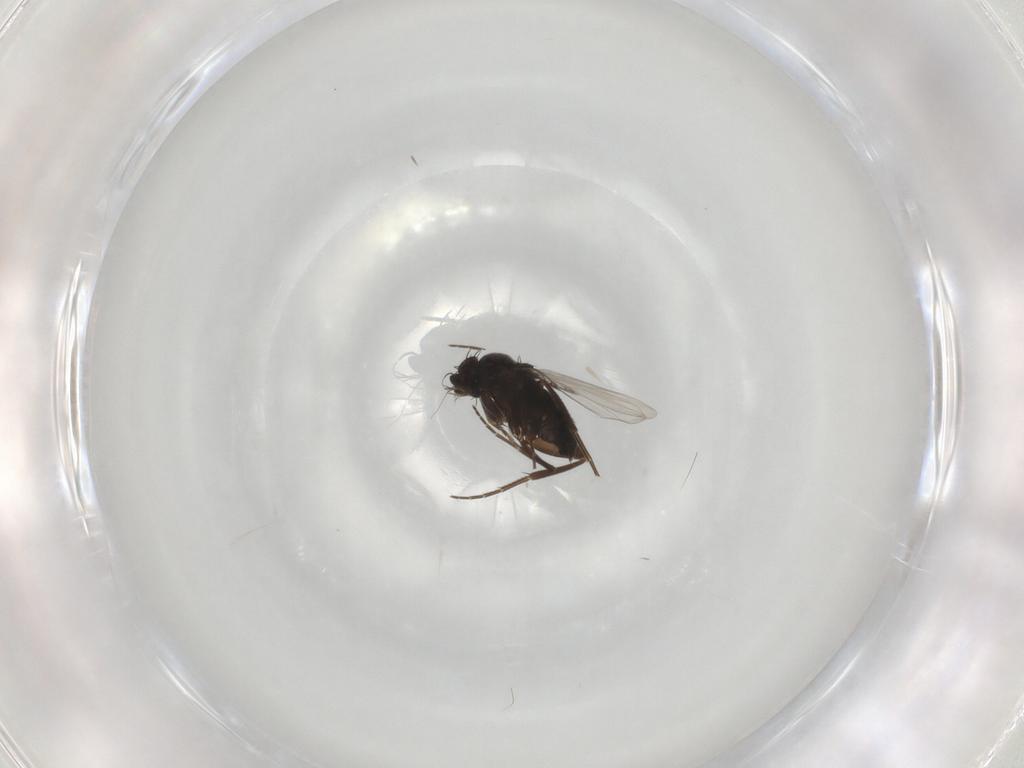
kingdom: Animalia
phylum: Arthropoda
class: Insecta
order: Diptera
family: Phoridae
